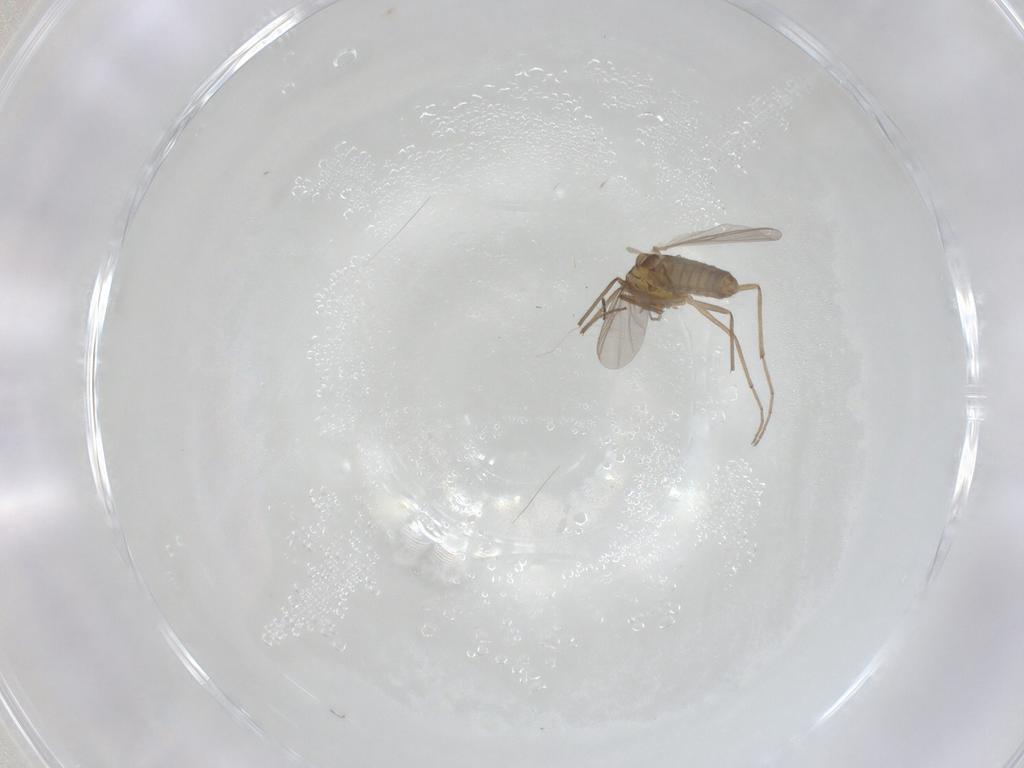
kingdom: Animalia
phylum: Arthropoda
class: Insecta
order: Diptera
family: Chironomidae
